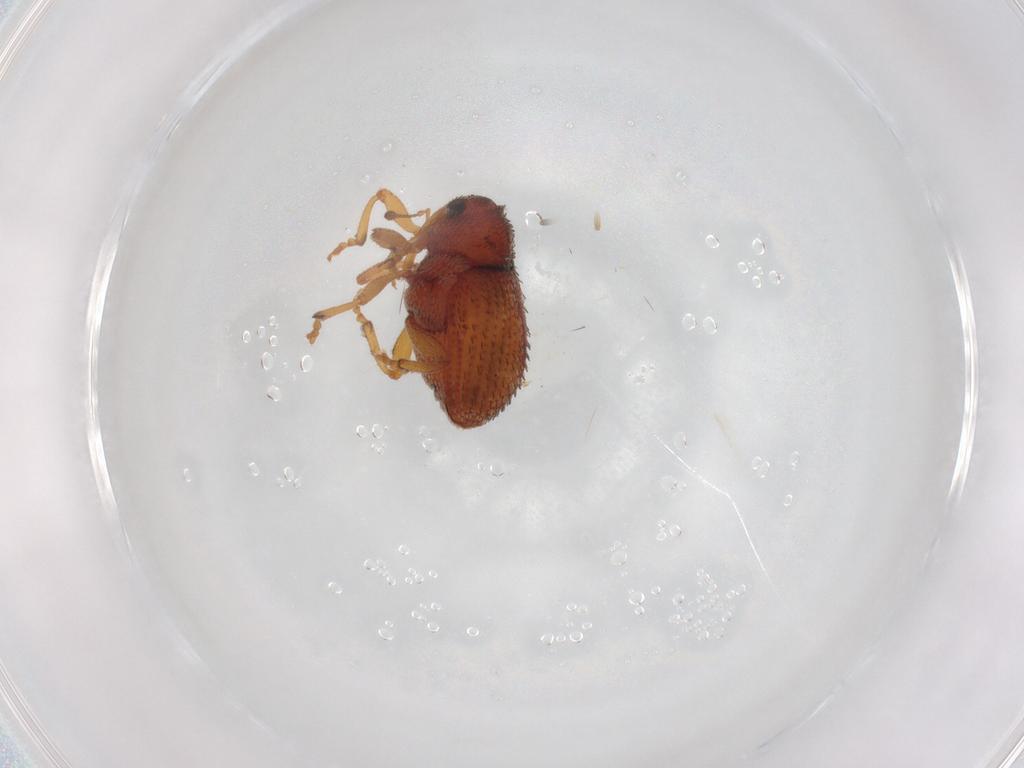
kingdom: Animalia
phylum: Arthropoda
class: Insecta
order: Coleoptera
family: Curculionidae
